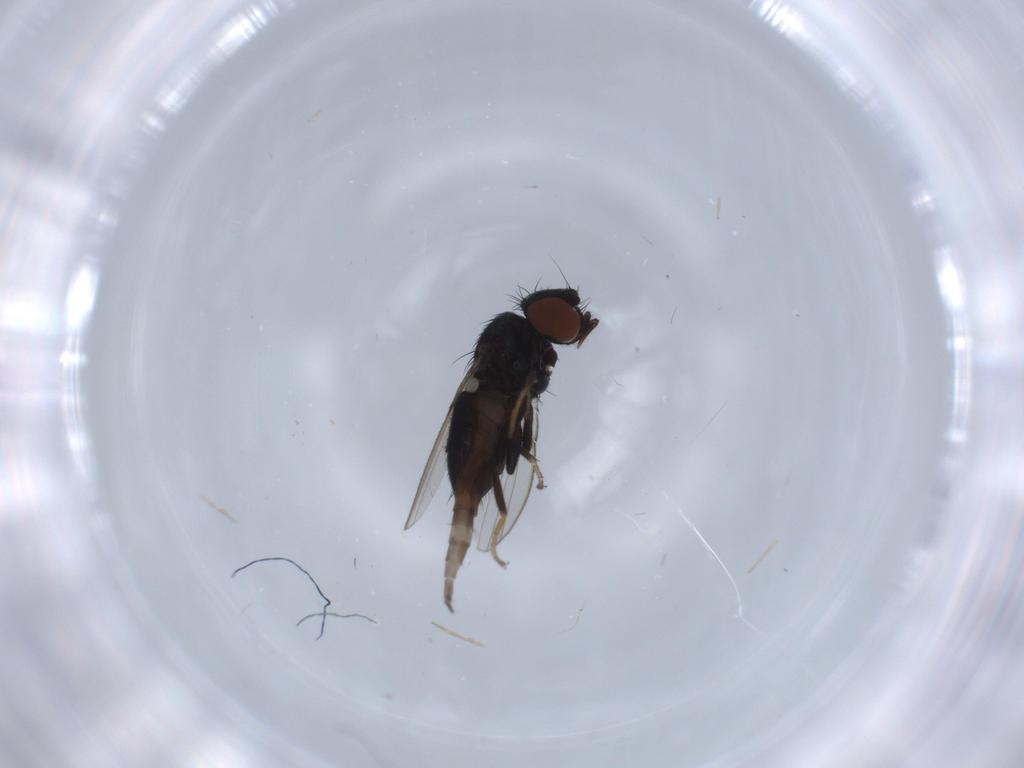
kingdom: Animalia
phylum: Arthropoda
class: Insecta
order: Diptera
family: Milichiidae
